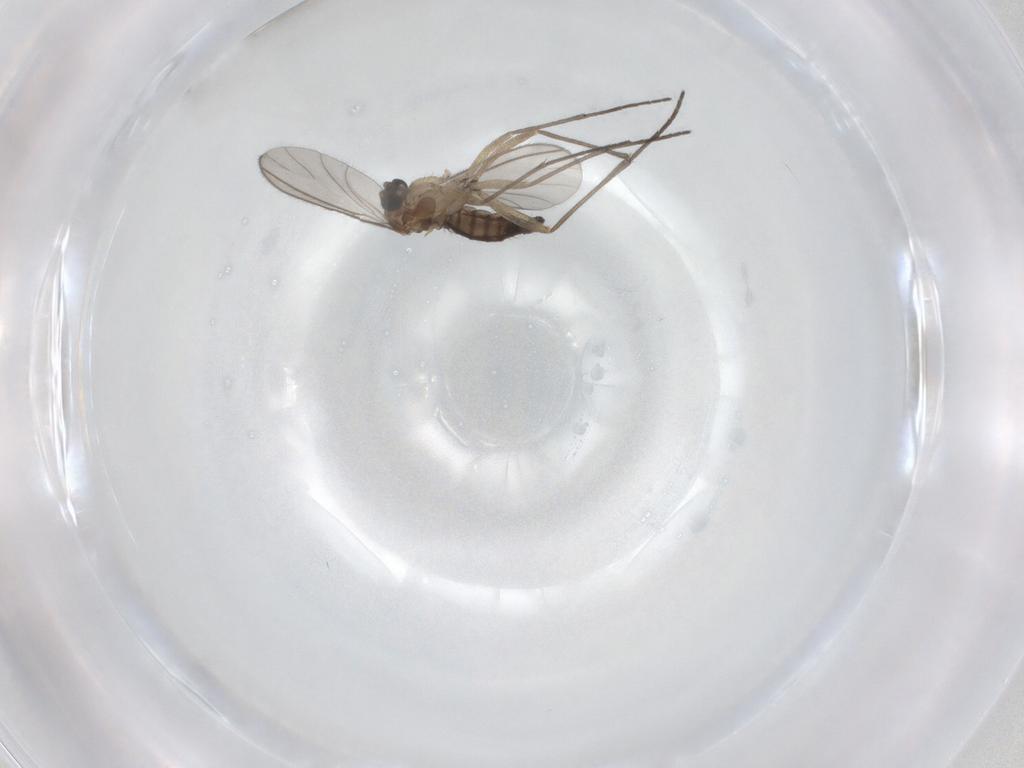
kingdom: Animalia
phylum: Arthropoda
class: Insecta
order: Diptera
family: Sciaridae
